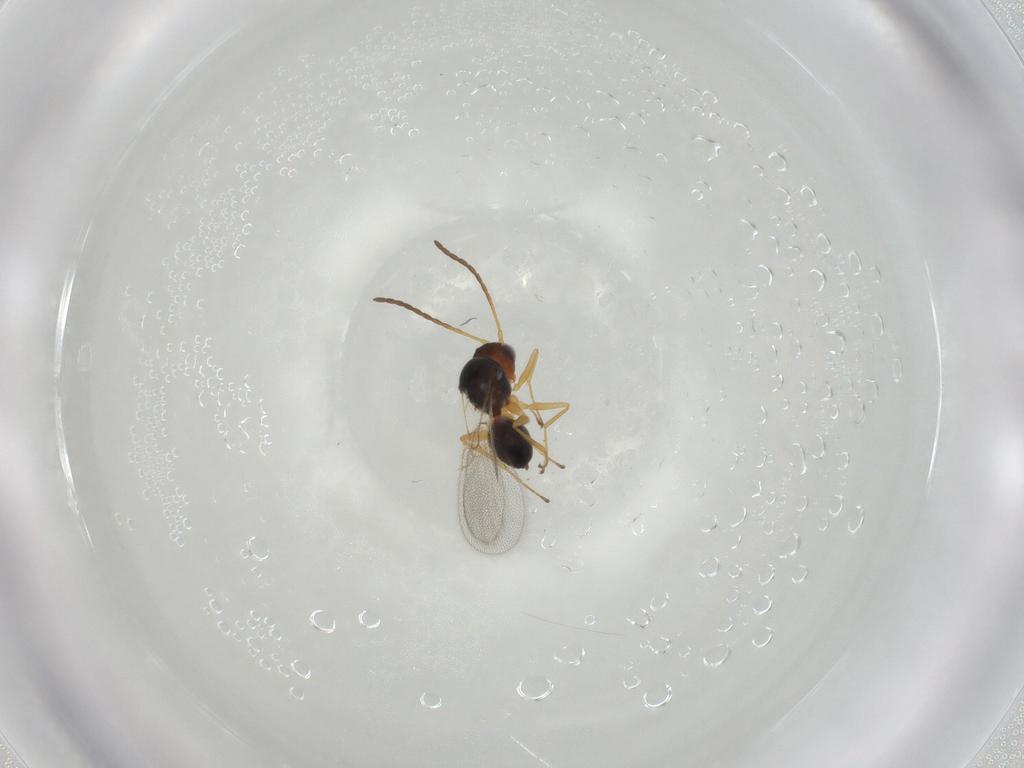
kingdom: Animalia
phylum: Arthropoda
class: Insecta
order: Hymenoptera
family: Figitidae
